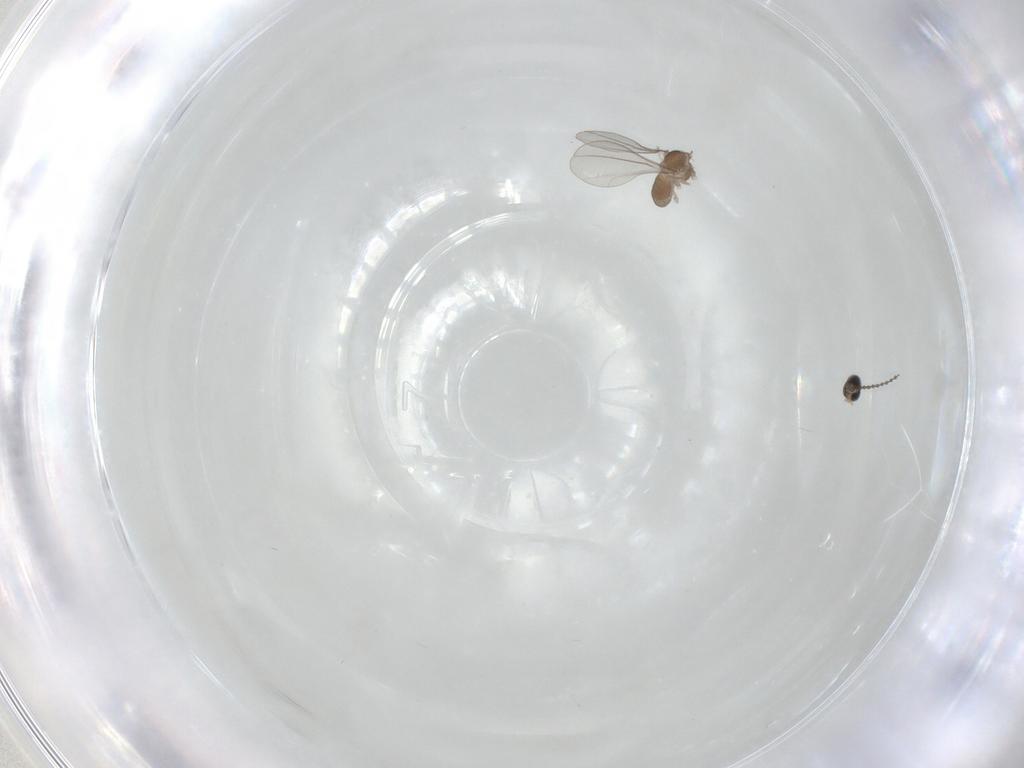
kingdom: Animalia
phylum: Arthropoda
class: Insecta
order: Diptera
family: Cecidomyiidae
